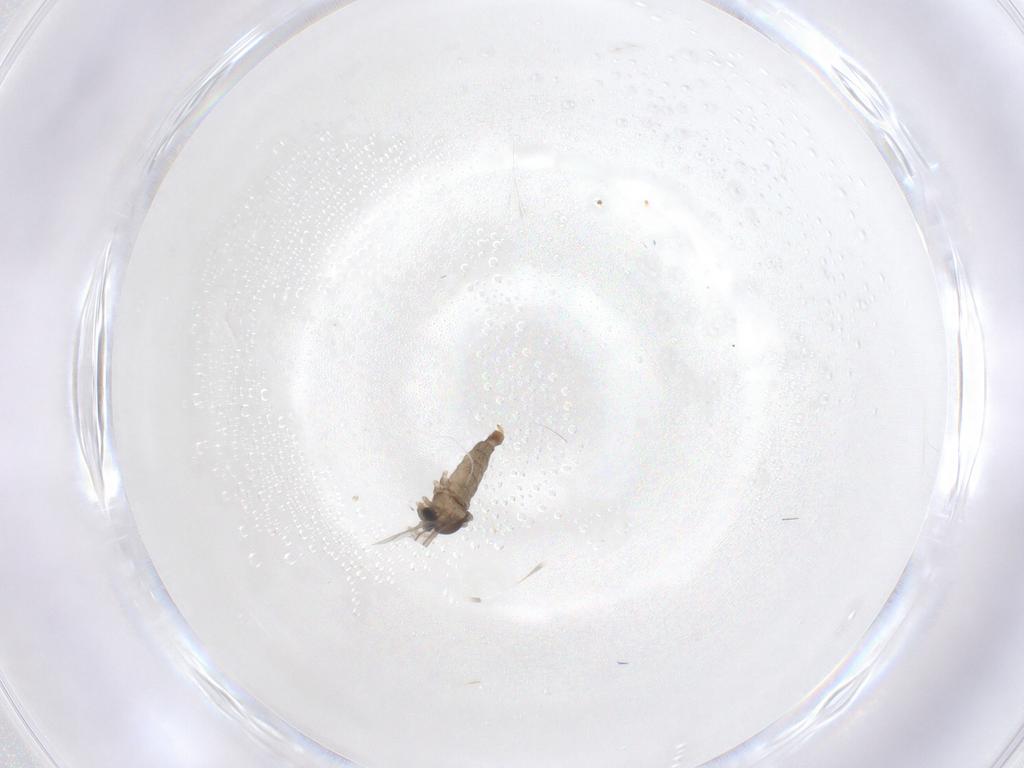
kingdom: Animalia
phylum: Arthropoda
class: Insecta
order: Diptera
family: Cecidomyiidae
